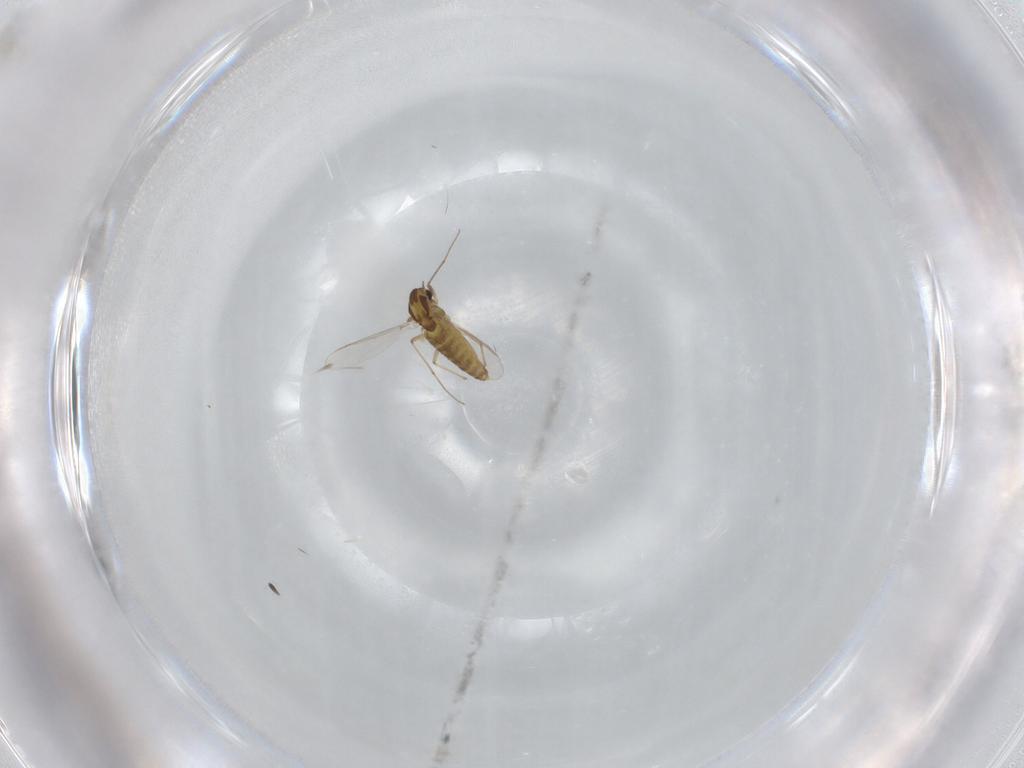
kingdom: Animalia
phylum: Arthropoda
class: Insecta
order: Diptera
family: Chironomidae
